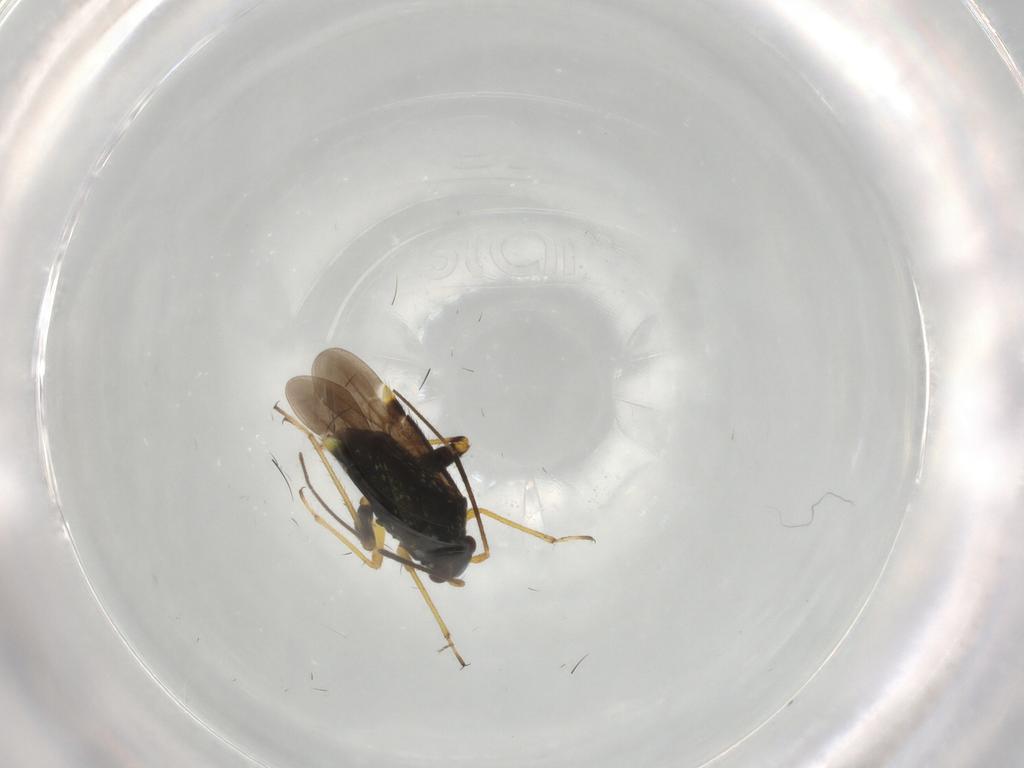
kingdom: Animalia
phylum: Arthropoda
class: Insecta
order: Hemiptera
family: Miridae
